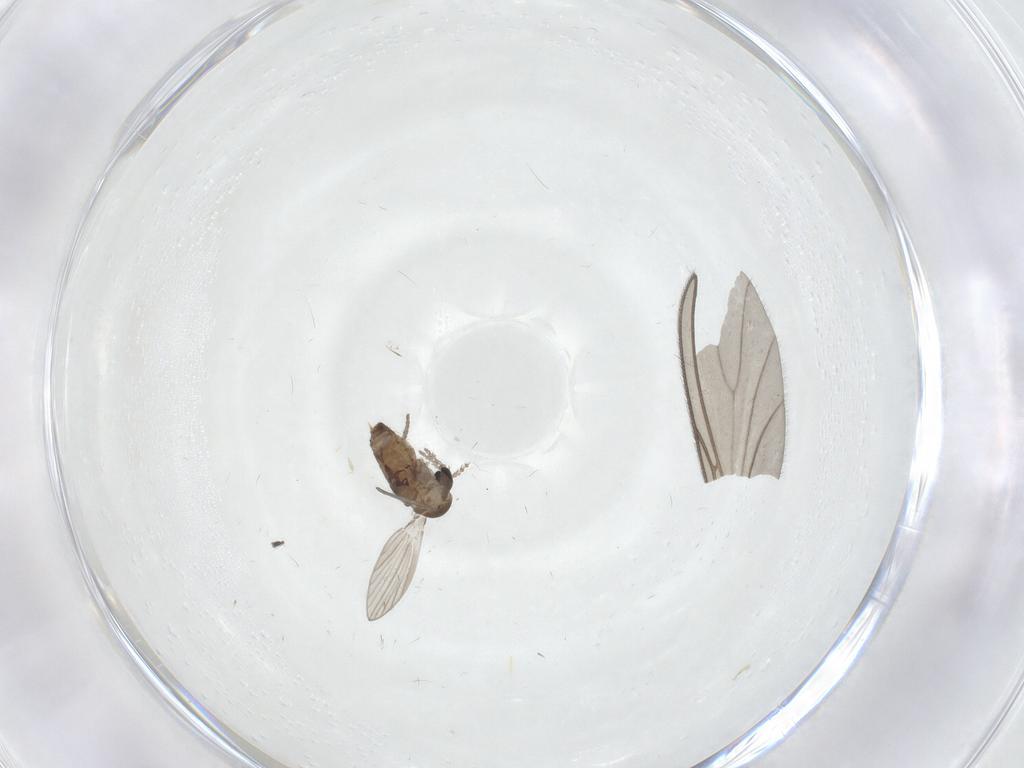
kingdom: Animalia
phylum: Arthropoda
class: Insecta
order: Diptera
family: Psychodidae
